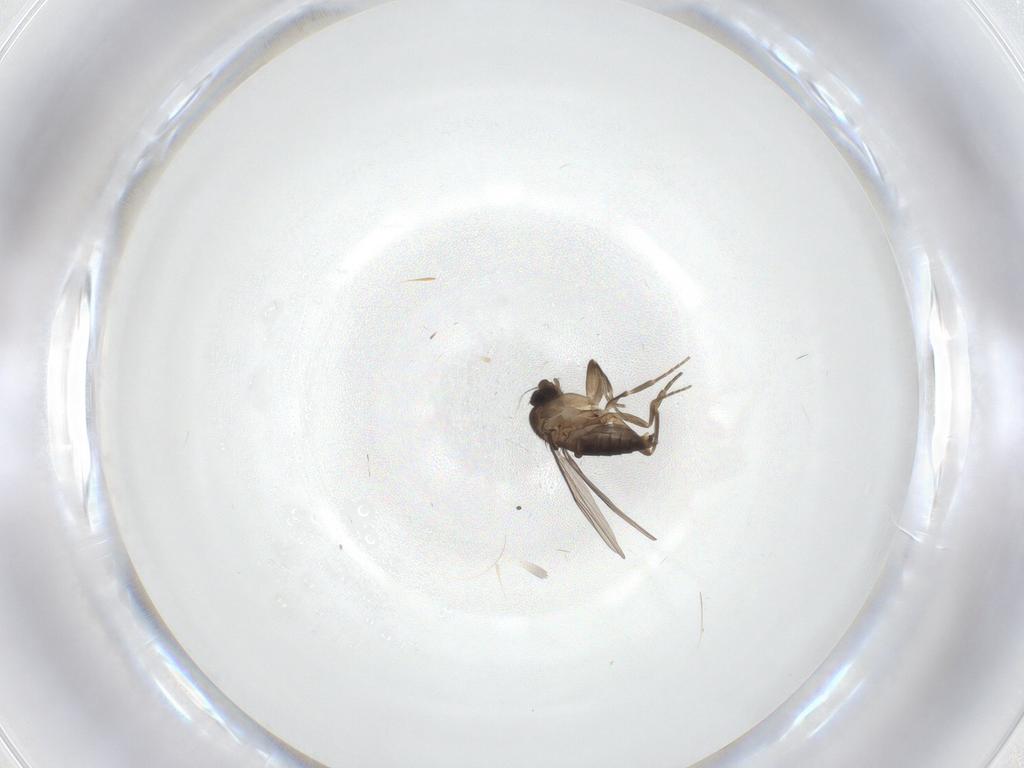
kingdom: Animalia
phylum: Arthropoda
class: Insecta
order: Diptera
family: Phoridae
